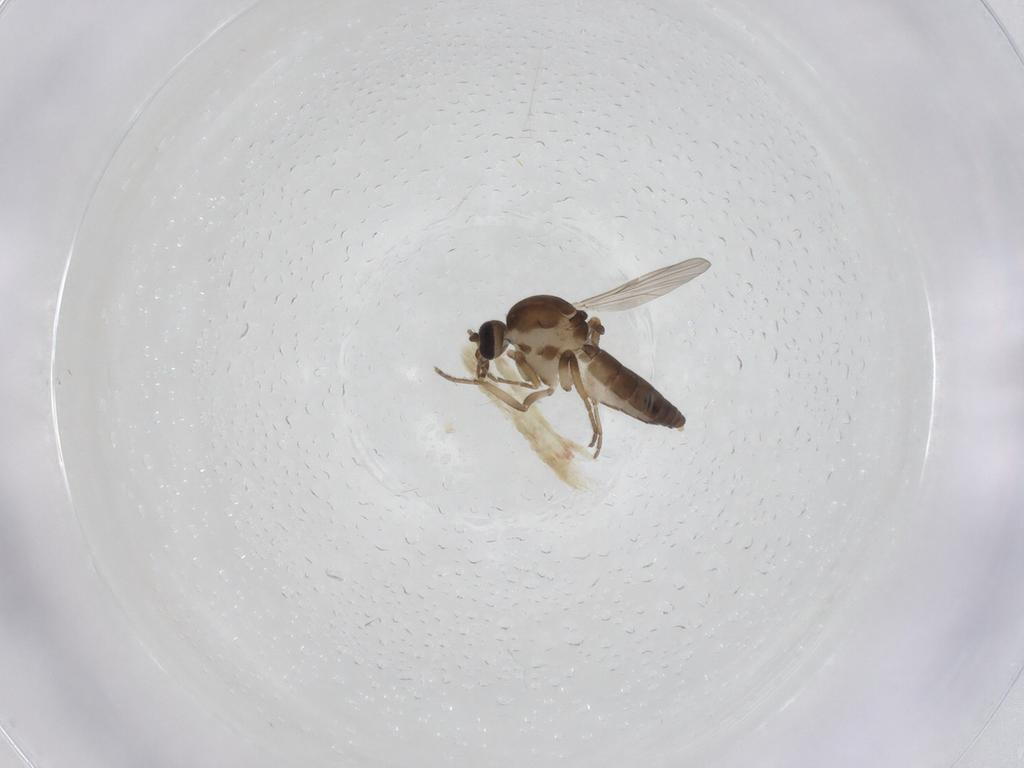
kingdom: Animalia
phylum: Arthropoda
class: Insecta
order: Diptera
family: Ceratopogonidae
